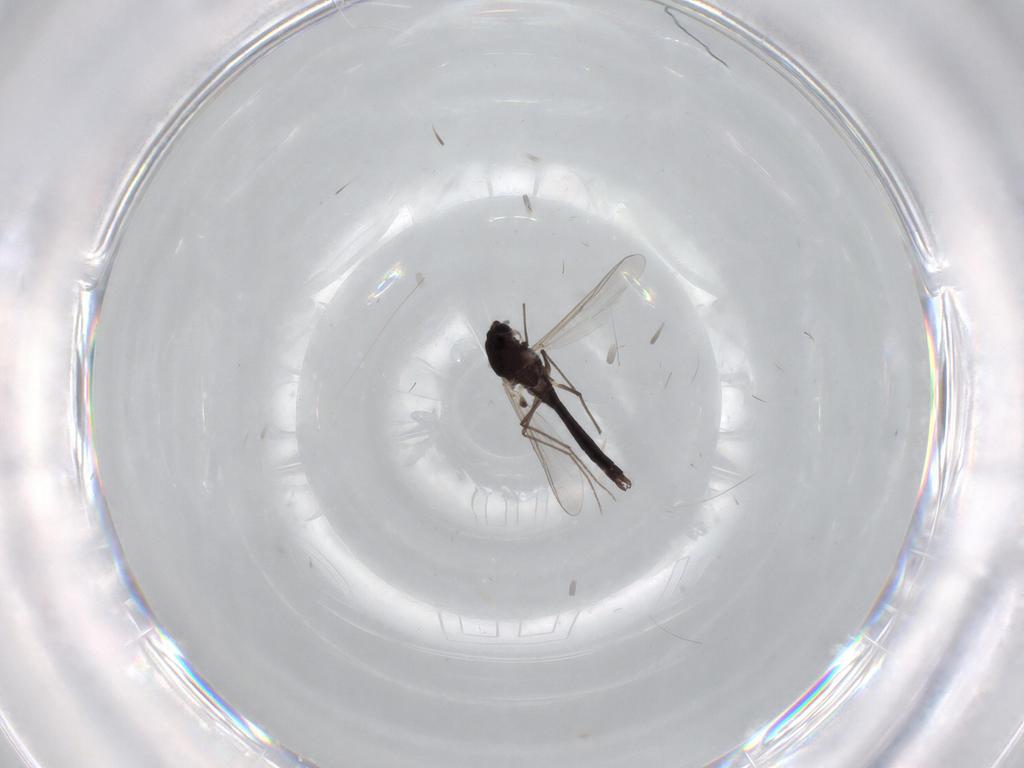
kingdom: Animalia
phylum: Arthropoda
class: Insecta
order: Diptera
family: Chironomidae
